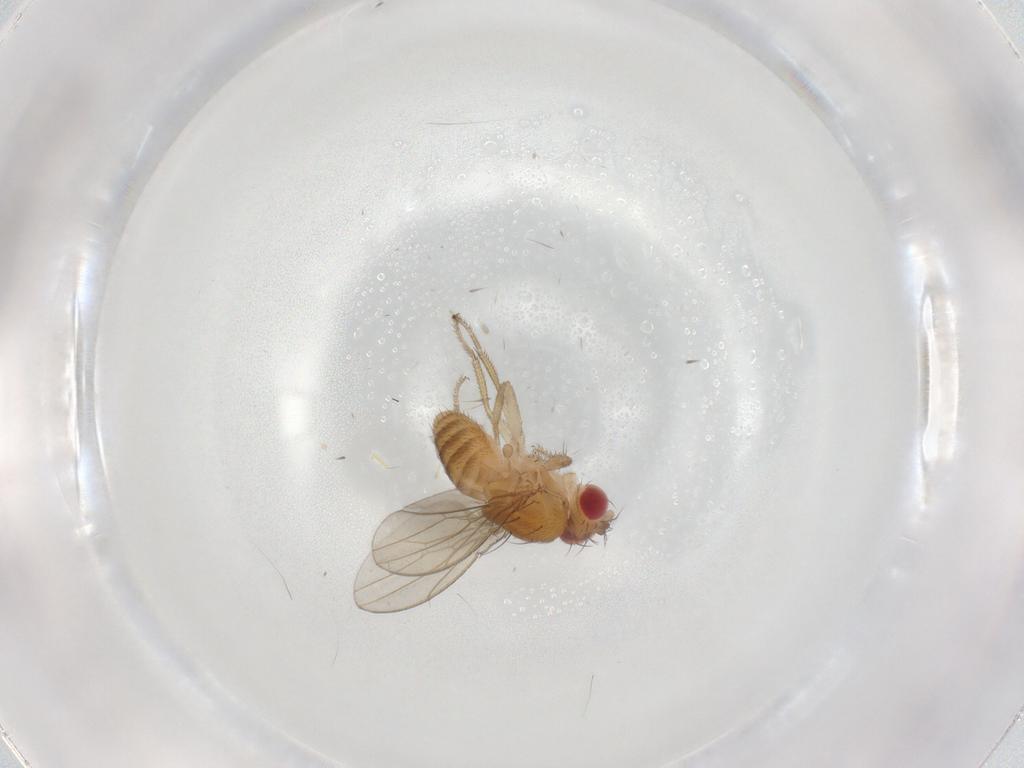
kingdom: Animalia
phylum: Arthropoda
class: Insecta
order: Diptera
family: Drosophilidae
